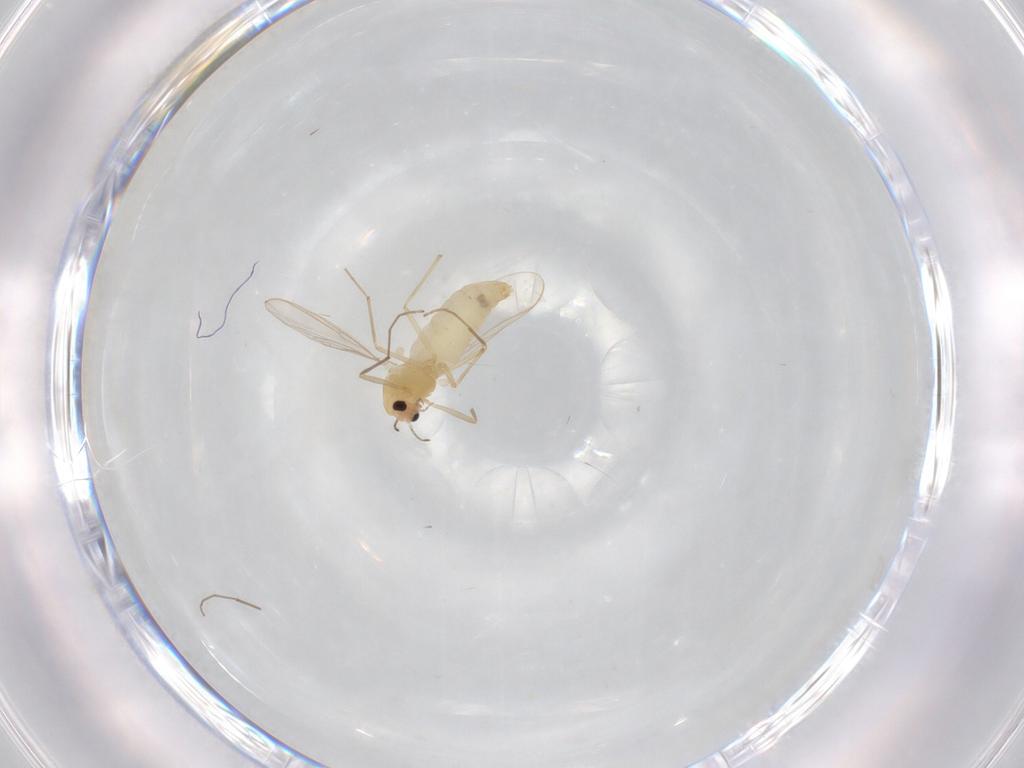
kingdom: Animalia
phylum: Arthropoda
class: Insecta
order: Diptera
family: Chironomidae
